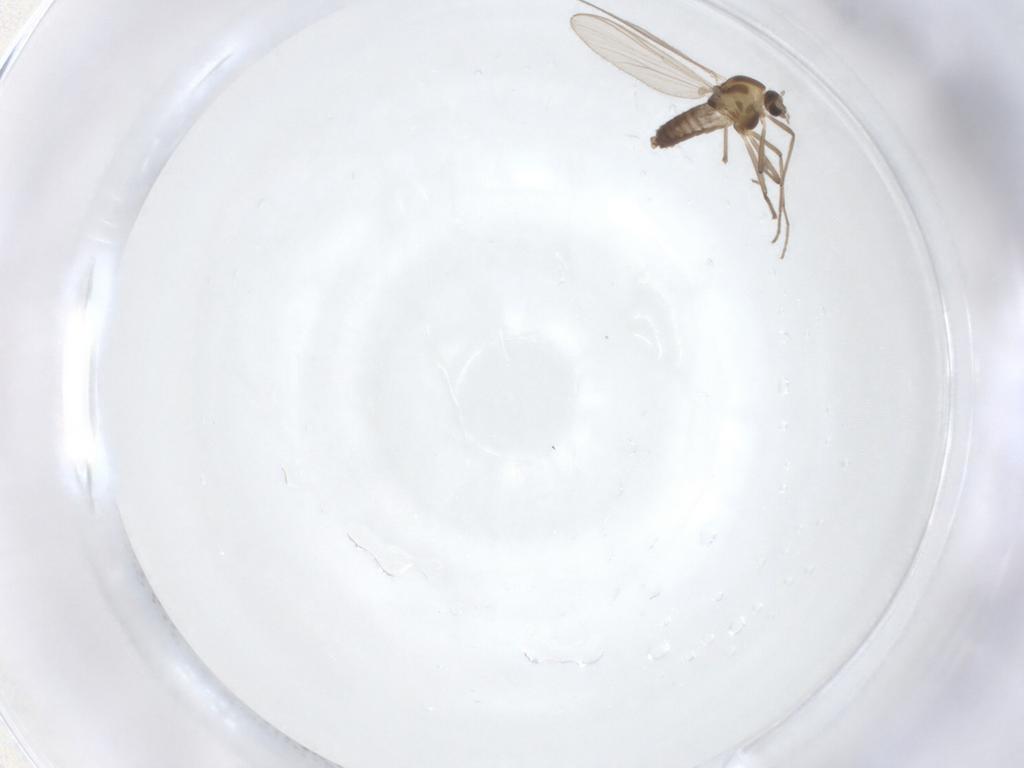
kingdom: Animalia
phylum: Arthropoda
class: Insecta
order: Diptera
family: Chironomidae
